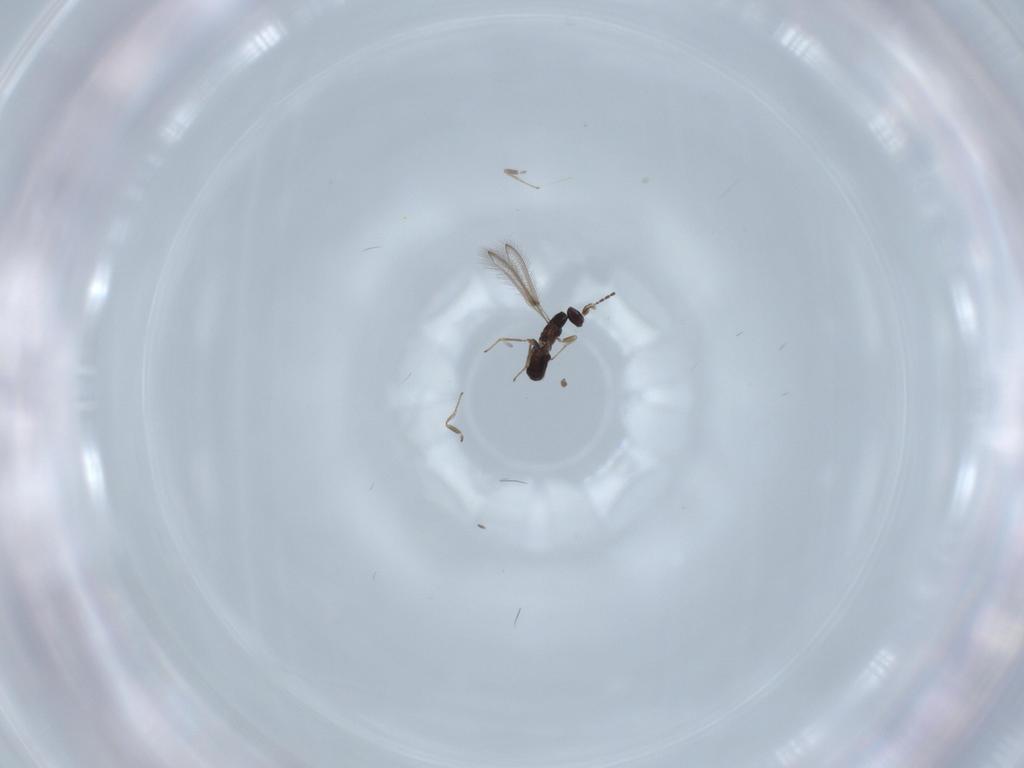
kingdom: Animalia
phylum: Arthropoda
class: Insecta
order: Hymenoptera
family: Mymaridae
